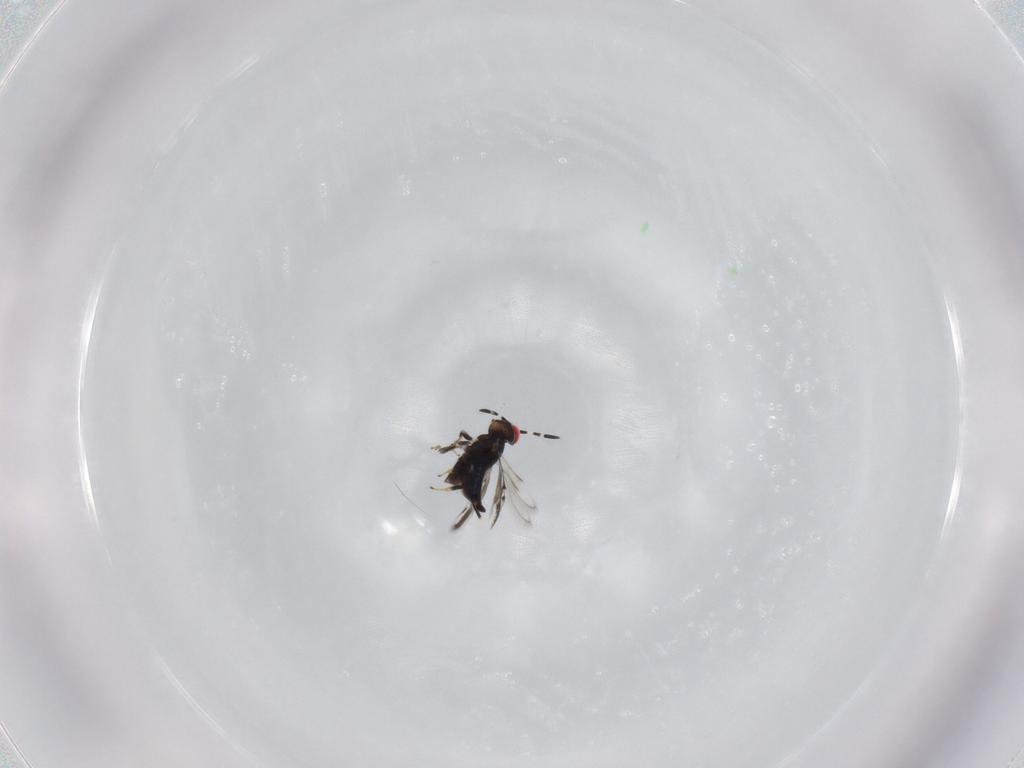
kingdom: Animalia
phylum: Arthropoda
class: Insecta
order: Hymenoptera
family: Azotidae
